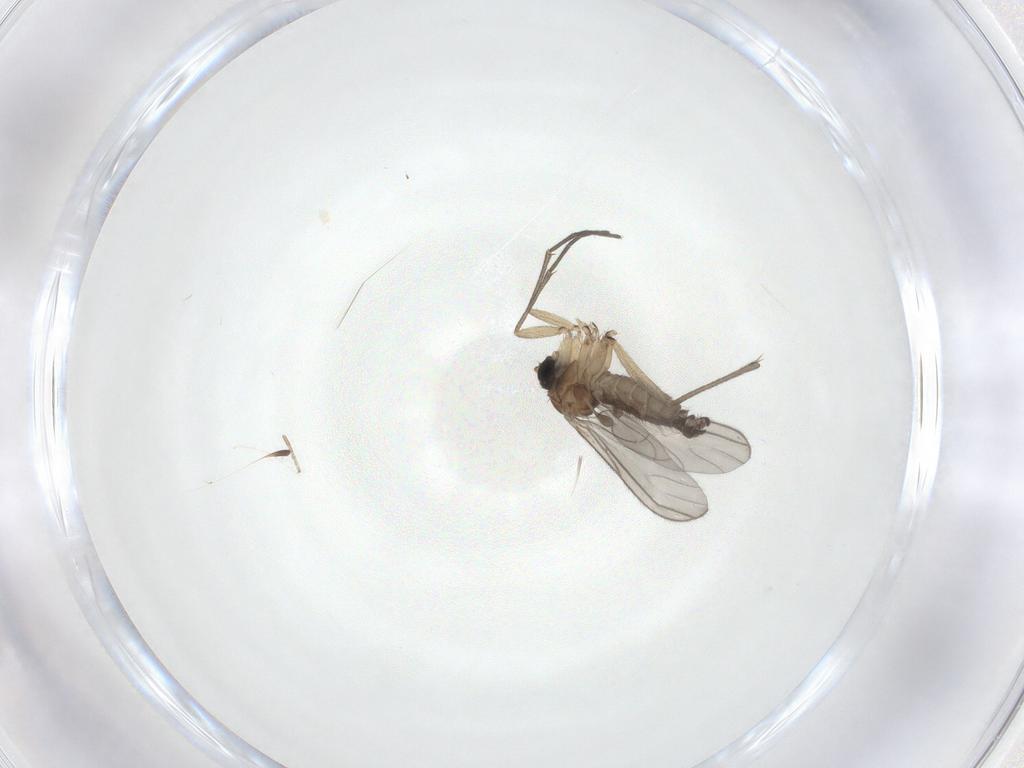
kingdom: Animalia
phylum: Arthropoda
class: Insecta
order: Diptera
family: Sciaridae
